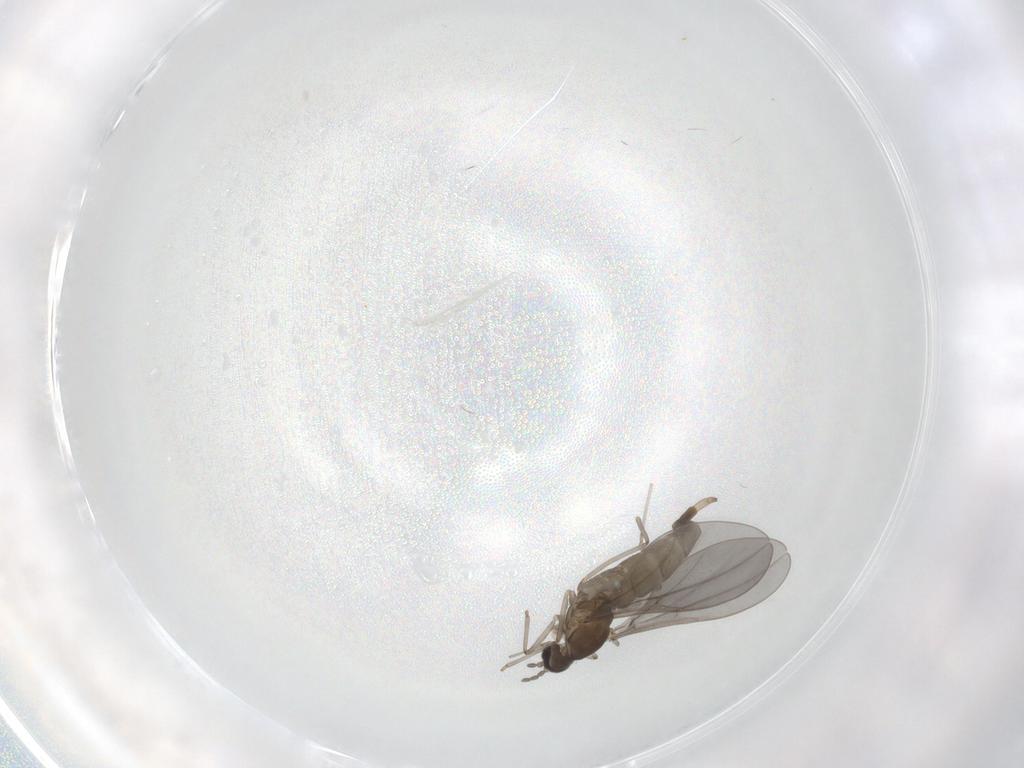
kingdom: Animalia
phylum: Arthropoda
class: Insecta
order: Diptera
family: Cecidomyiidae
